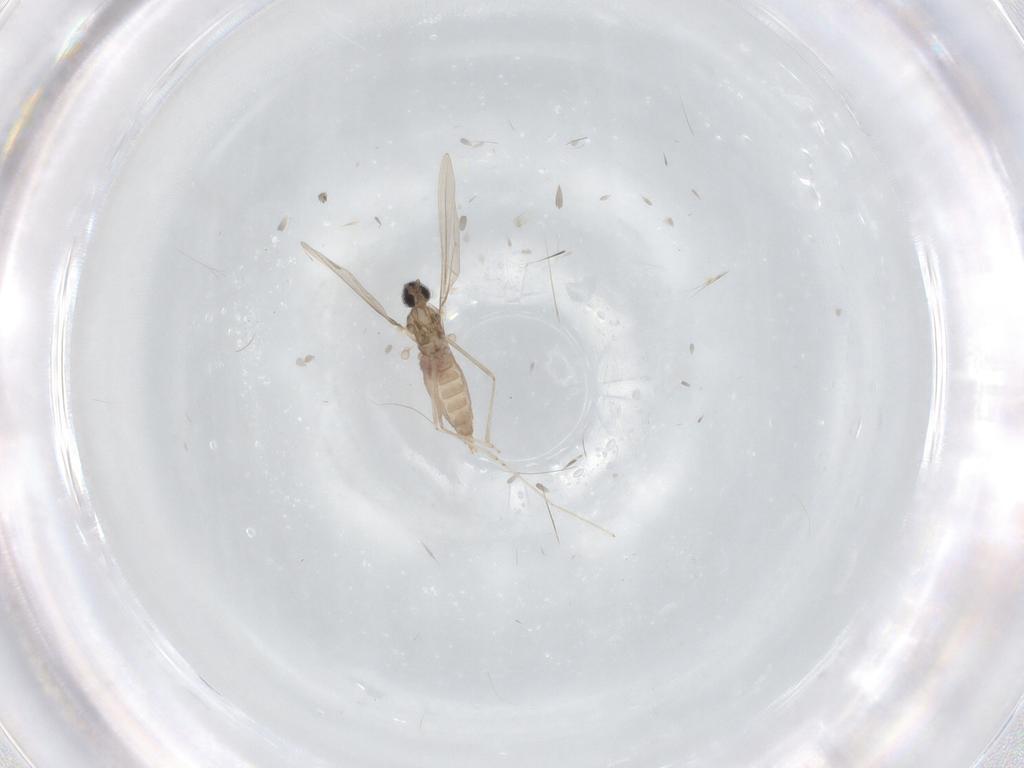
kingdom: Animalia
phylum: Arthropoda
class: Insecta
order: Diptera
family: Cecidomyiidae
